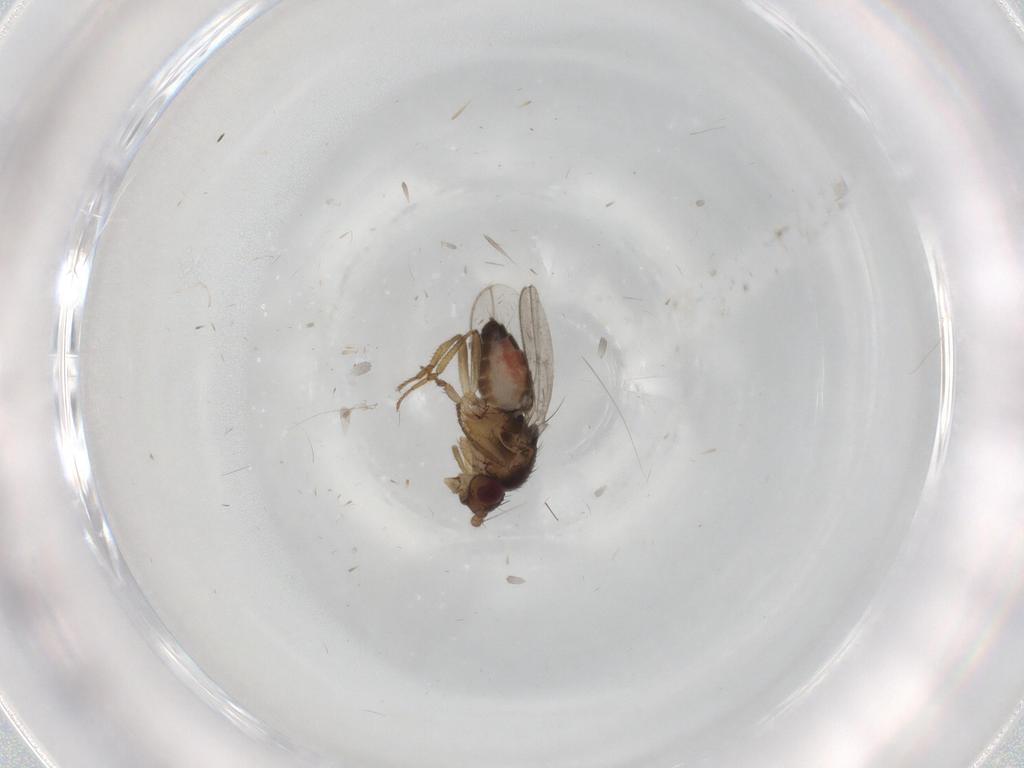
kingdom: Animalia
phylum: Arthropoda
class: Insecta
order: Diptera
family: Sphaeroceridae
